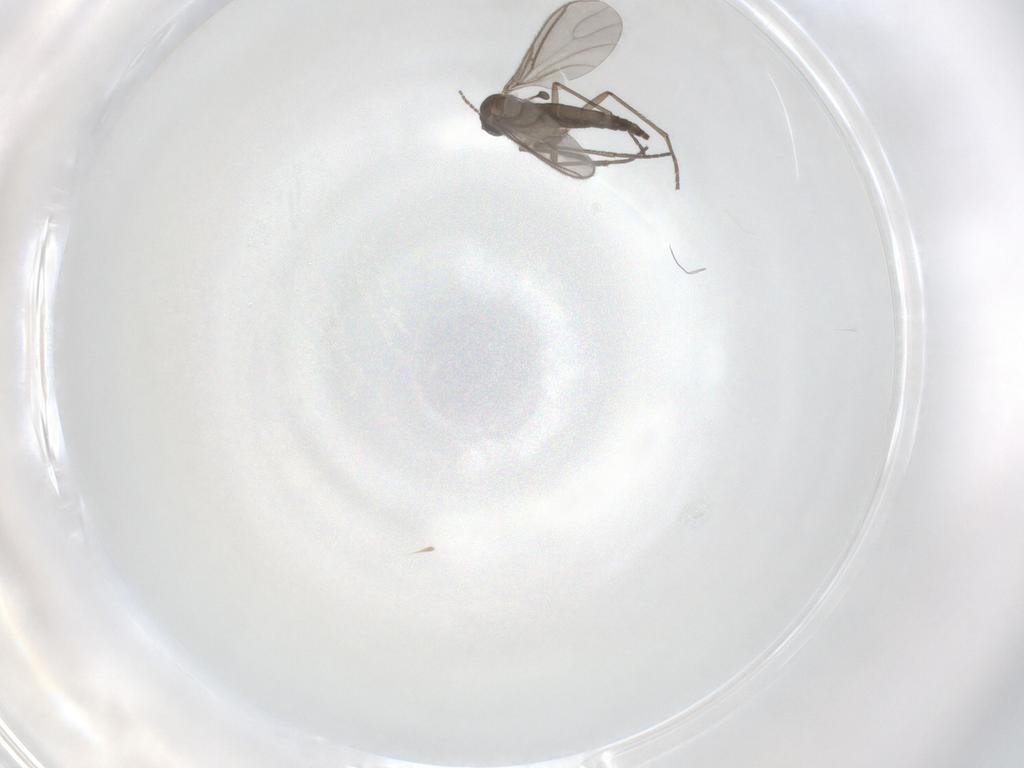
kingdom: Animalia
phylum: Arthropoda
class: Insecta
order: Diptera
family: Sciaridae
